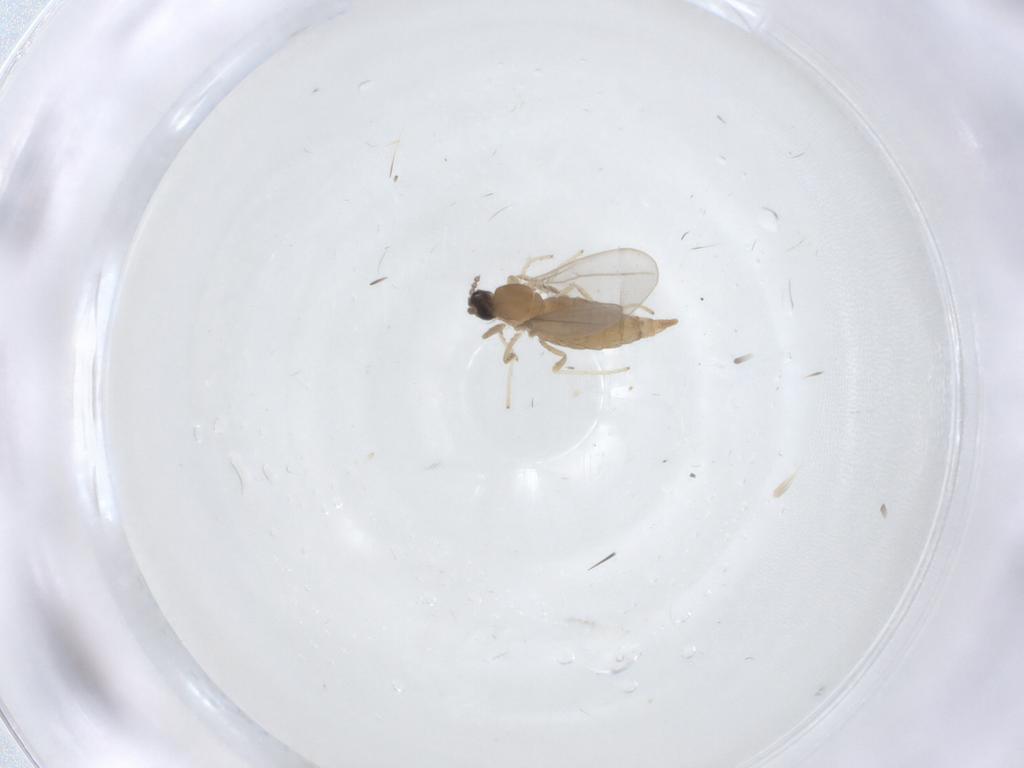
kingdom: Animalia
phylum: Arthropoda
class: Insecta
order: Diptera
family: Cecidomyiidae
